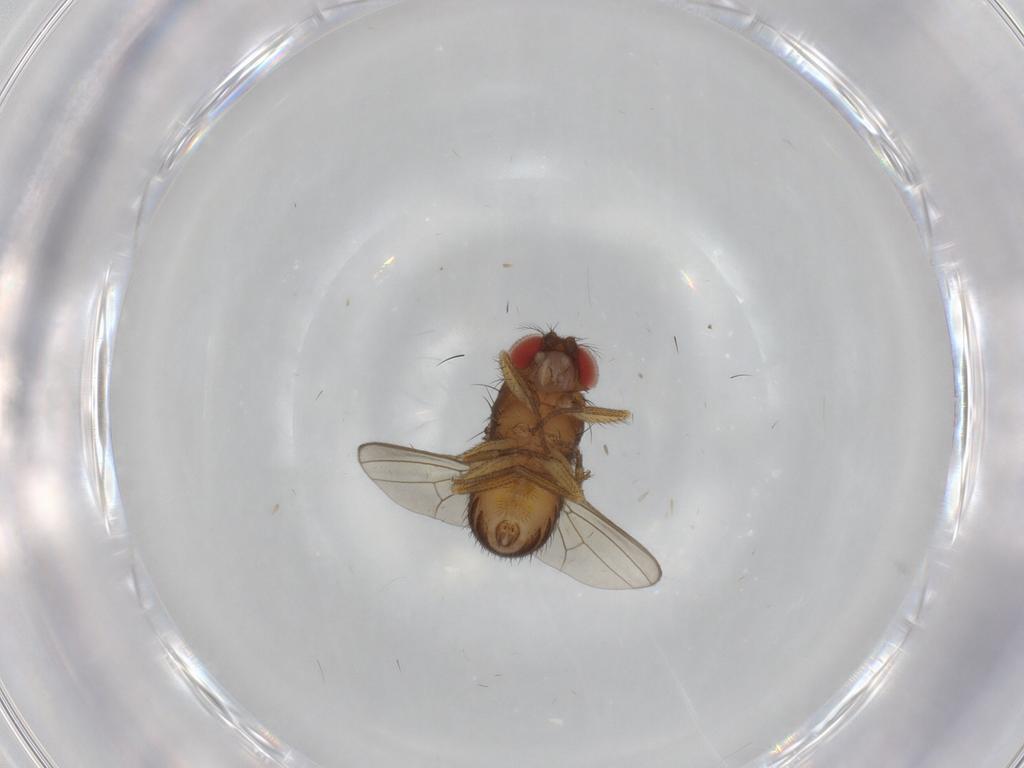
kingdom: Animalia
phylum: Arthropoda
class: Insecta
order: Diptera
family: Drosophilidae
